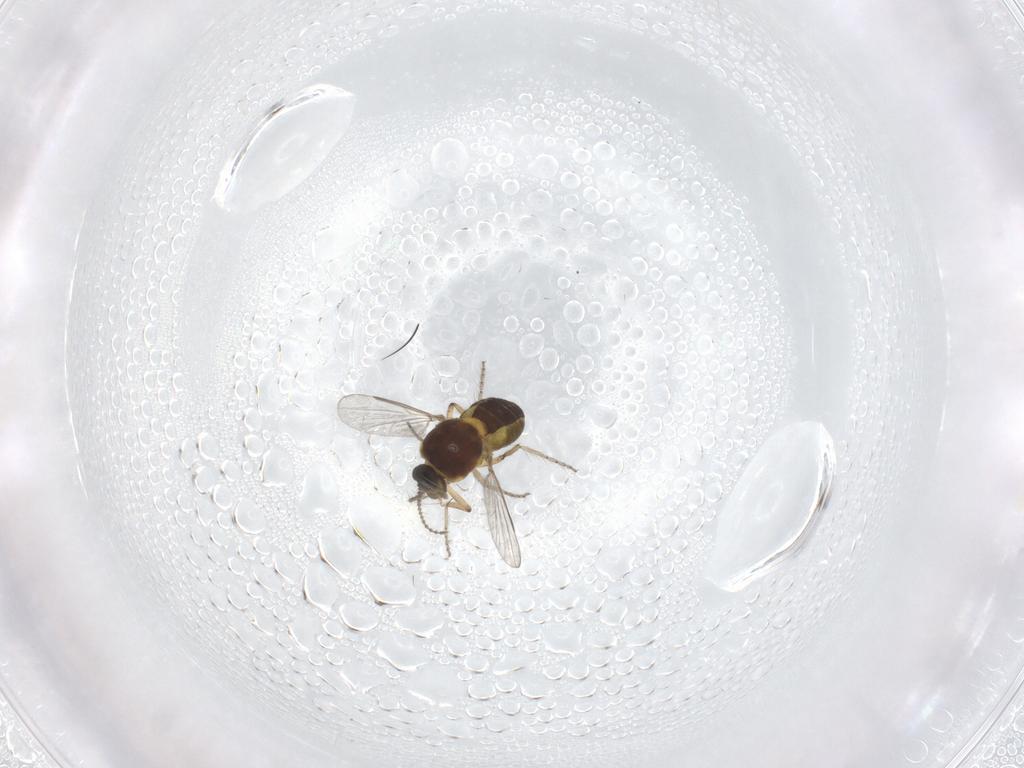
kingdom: Animalia
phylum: Arthropoda
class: Insecta
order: Diptera
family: Ceratopogonidae
